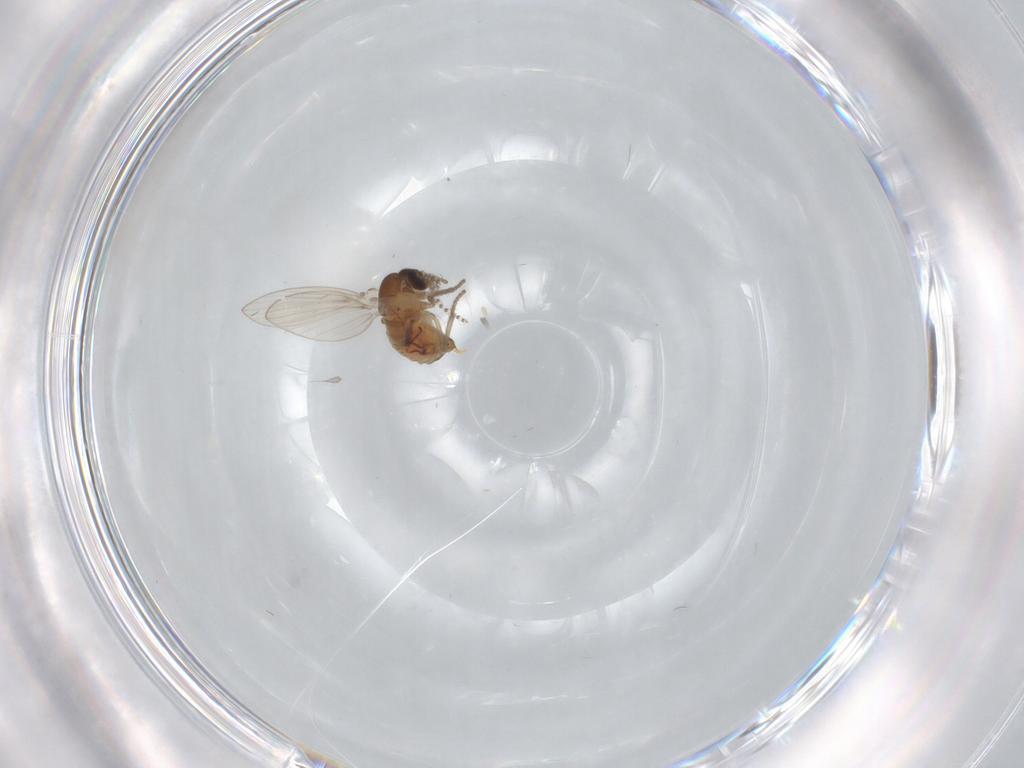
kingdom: Animalia
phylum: Arthropoda
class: Insecta
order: Diptera
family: Psychodidae
